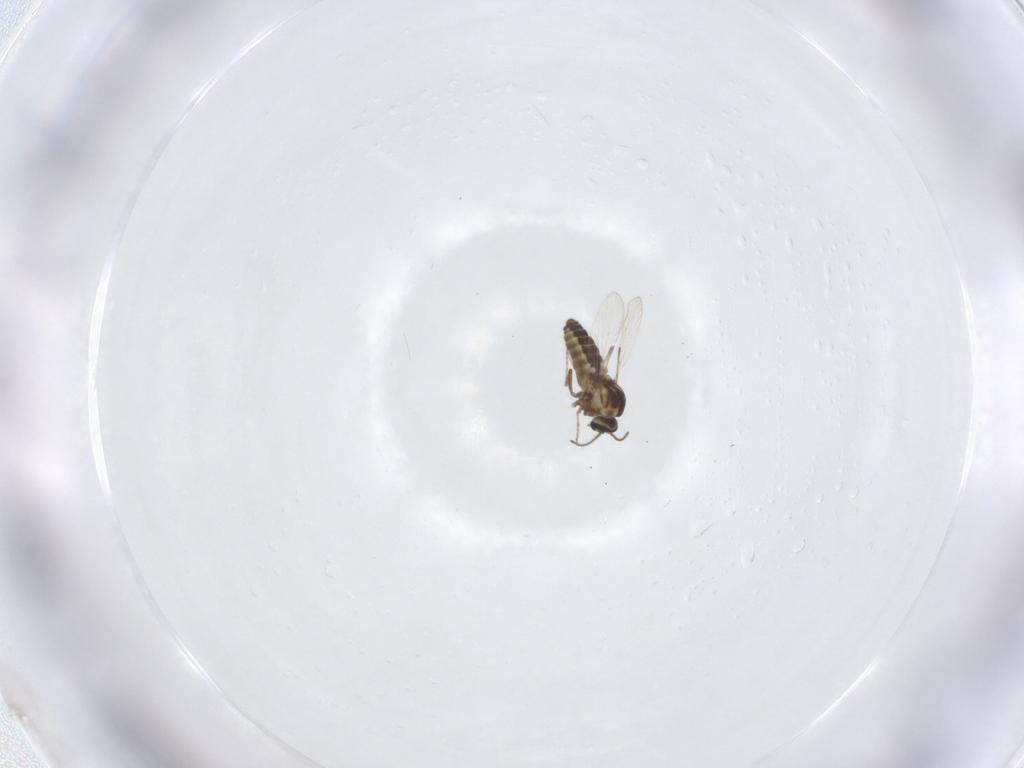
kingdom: Animalia
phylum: Arthropoda
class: Insecta
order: Diptera
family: Ceratopogonidae
